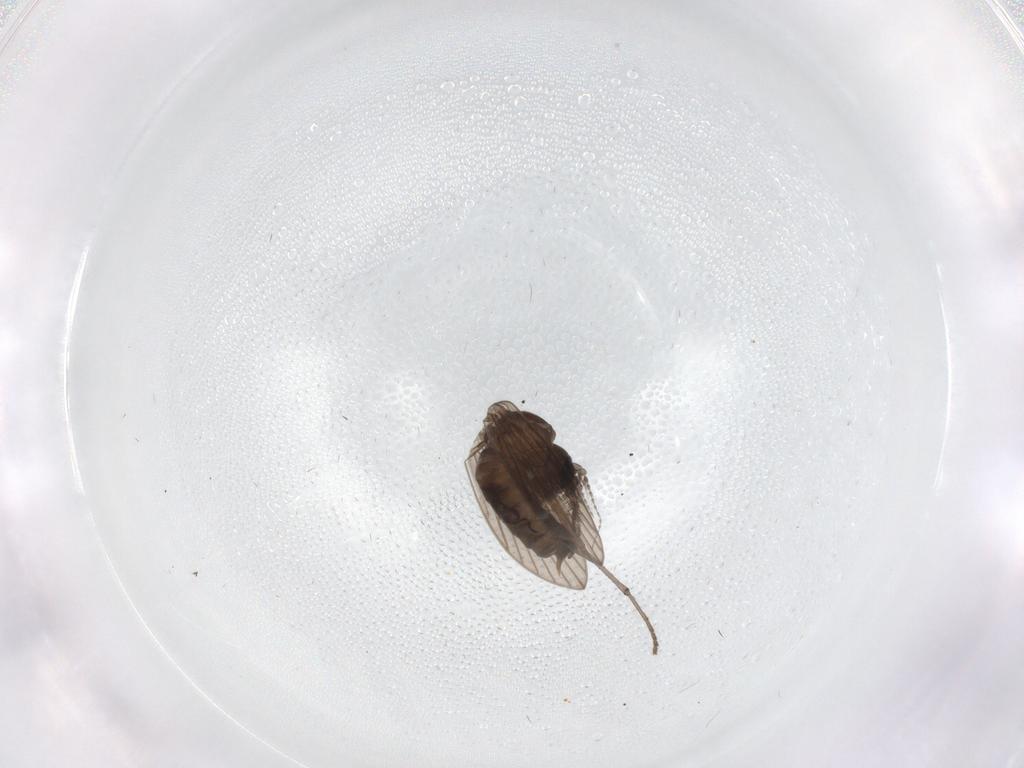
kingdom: Animalia
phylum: Arthropoda
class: Insecta
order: Diptera
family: Psychodidae
